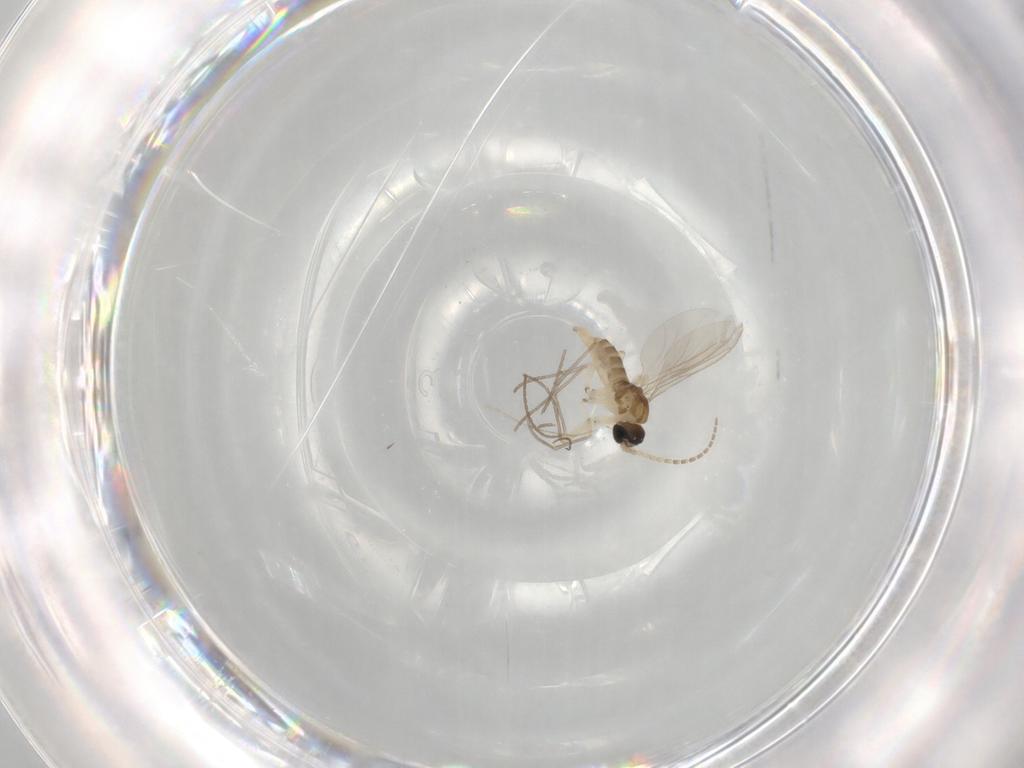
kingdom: Animalia
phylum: Arthropoda
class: Insecta
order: Diptera
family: Sciaridae
